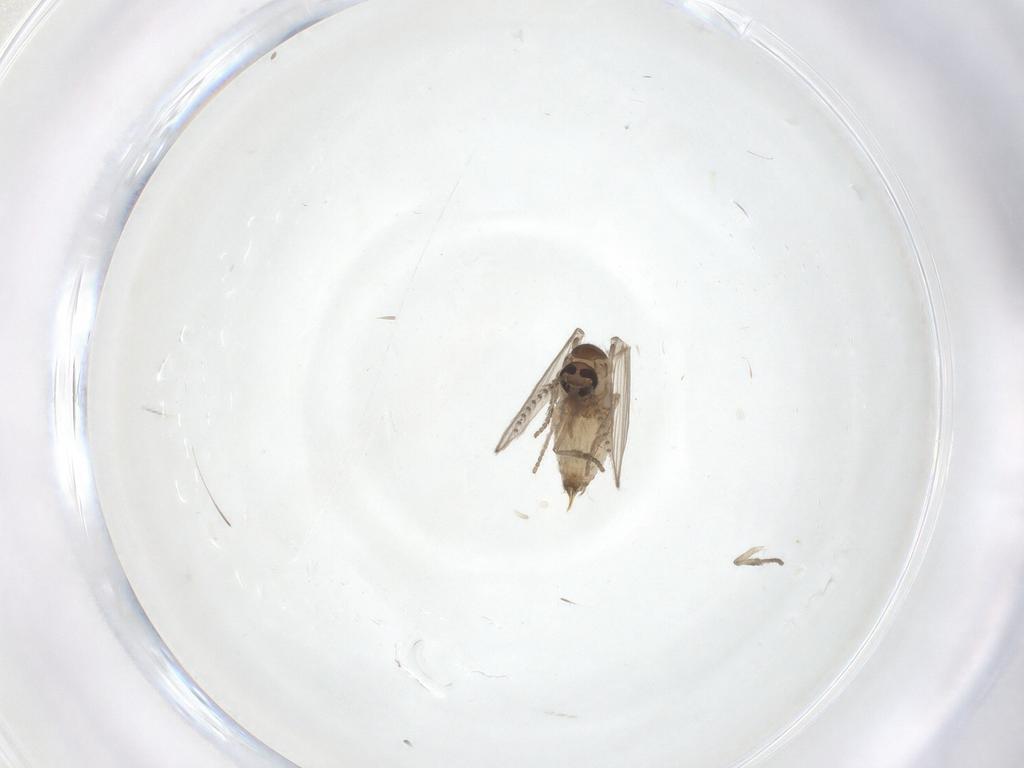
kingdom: Animalia
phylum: Arthropoda
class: Insecta
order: Diptera
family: Psychodidae
